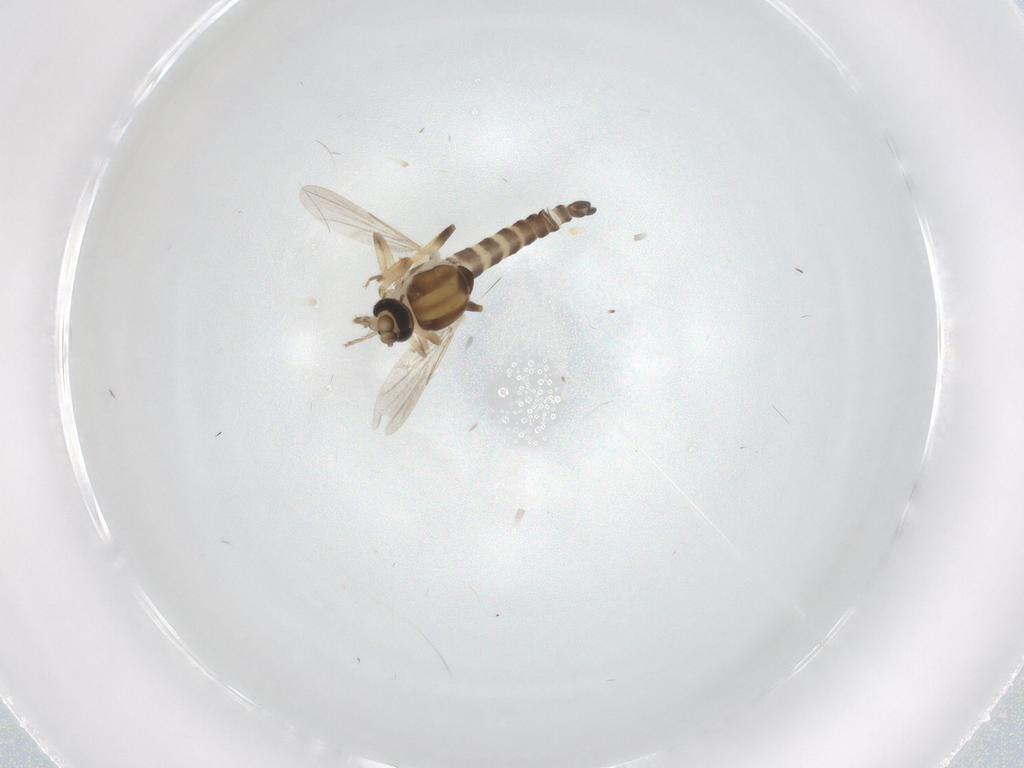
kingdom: Animalia
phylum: Arthropoda
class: Insecta
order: Diptera
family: Ceratopogonidae
